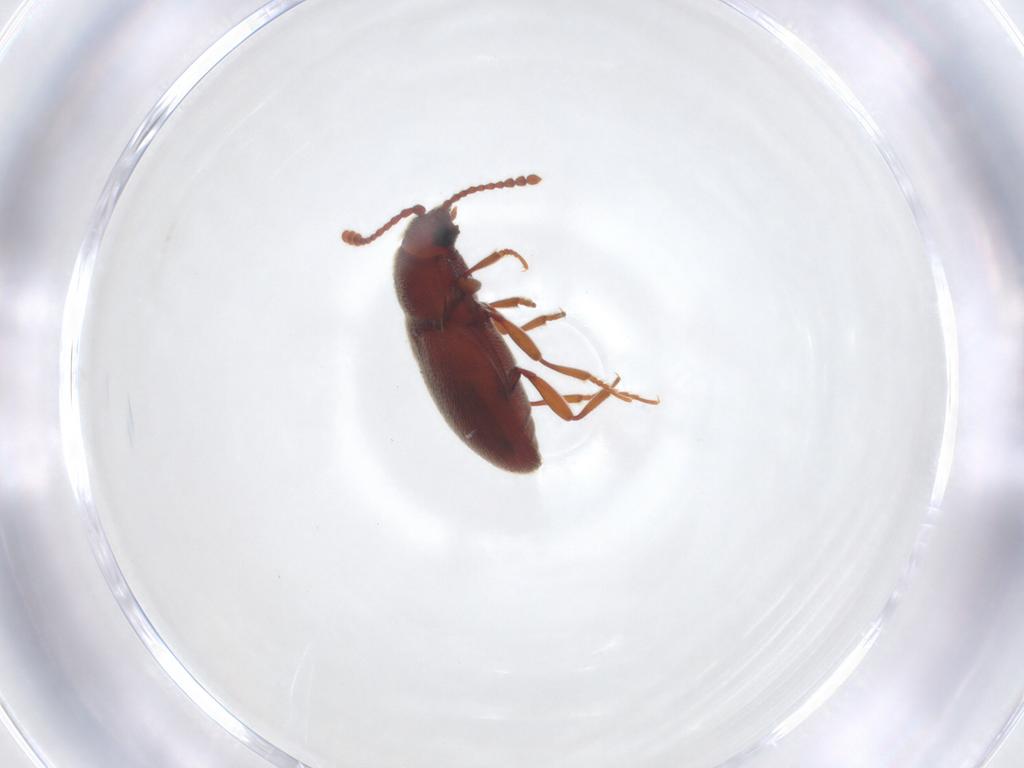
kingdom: Animalia
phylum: Arthropoda
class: Insecta
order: Coleoptera
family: Cryptophagidae
